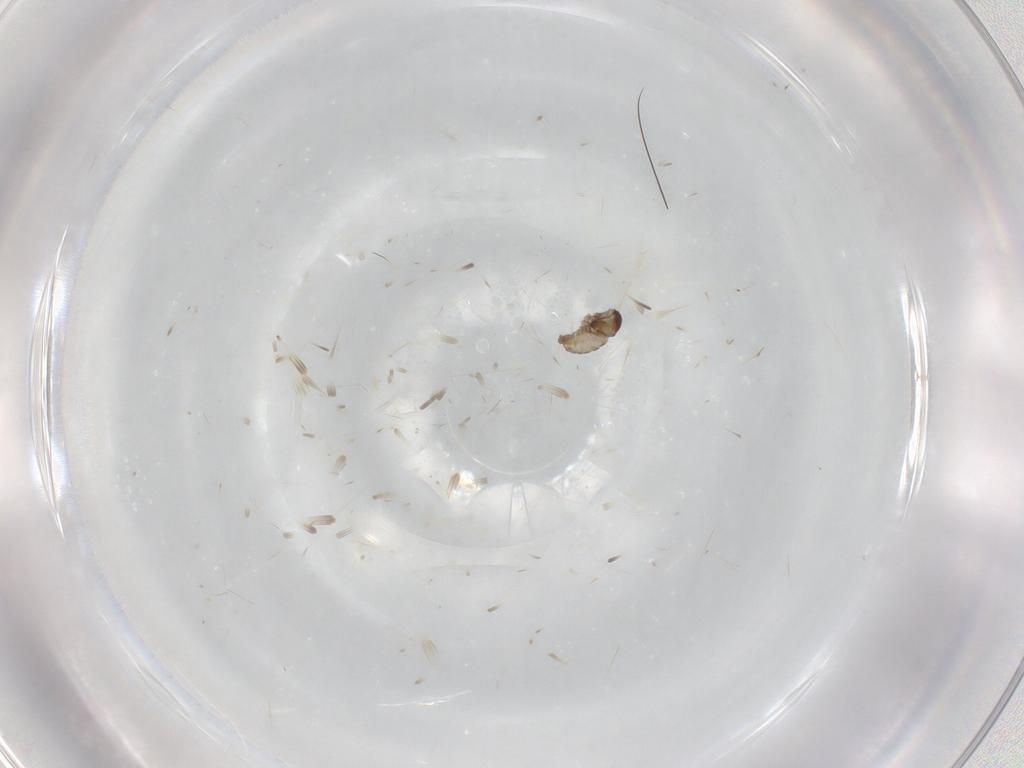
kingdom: Animalia
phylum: Arthropoda
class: Insecta
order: Diptera
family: Cecidomyiidae
